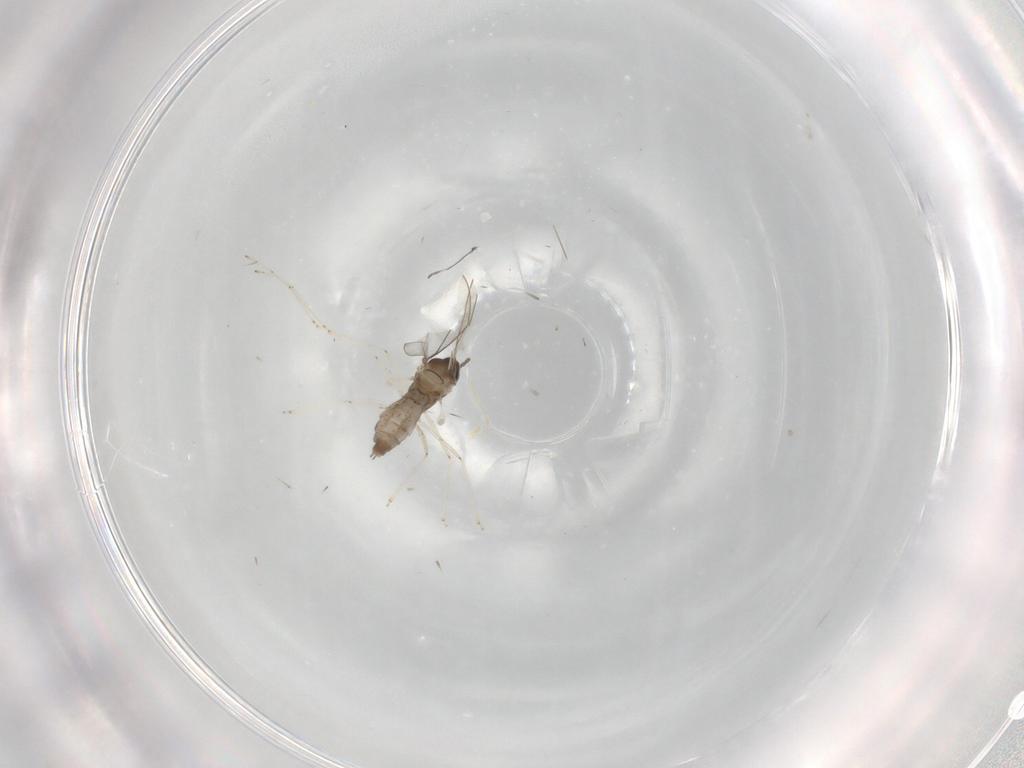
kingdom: Animalia
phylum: Arthropoda
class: Insecta
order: Diptera
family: Cecidomyiidae
